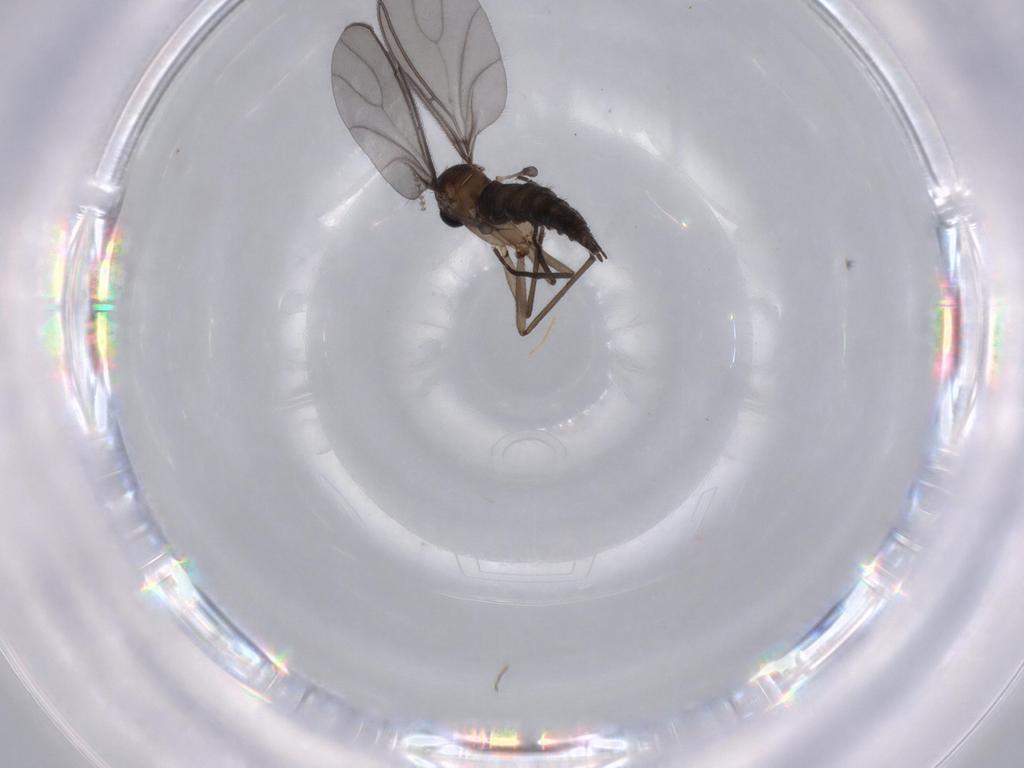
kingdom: Animalia
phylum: Arthropoda
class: Insecta
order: Diptera
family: Sciaridae
